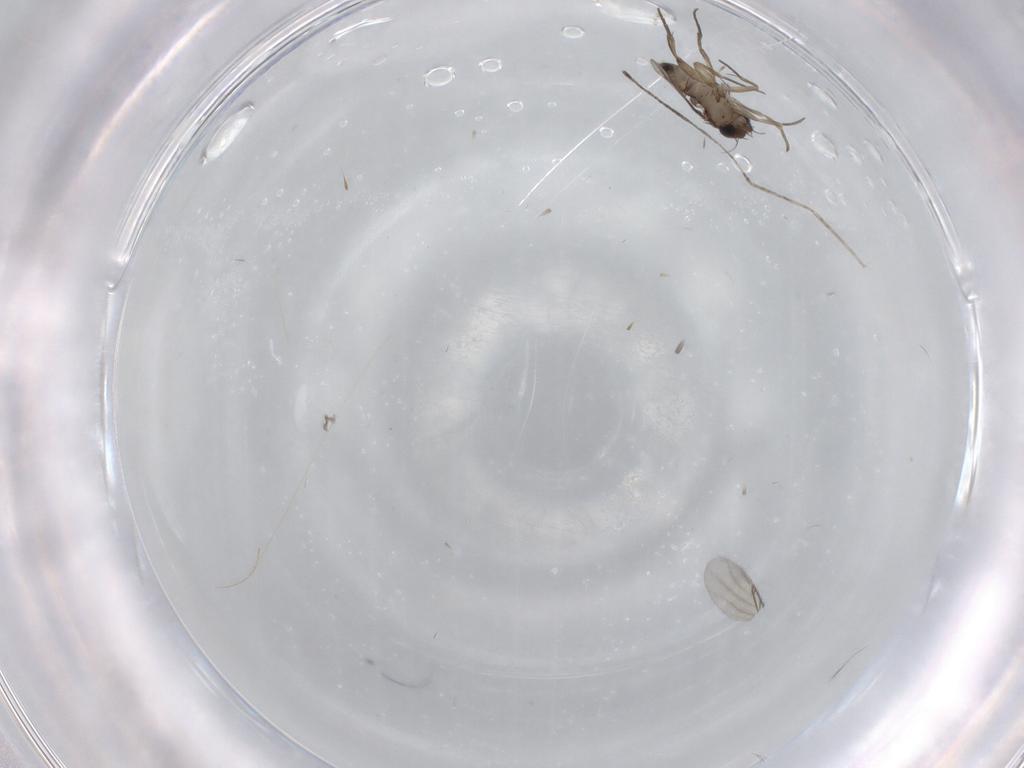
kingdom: Animalia
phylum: Arthropoda
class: Insecta
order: Diptera
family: Phoridae
